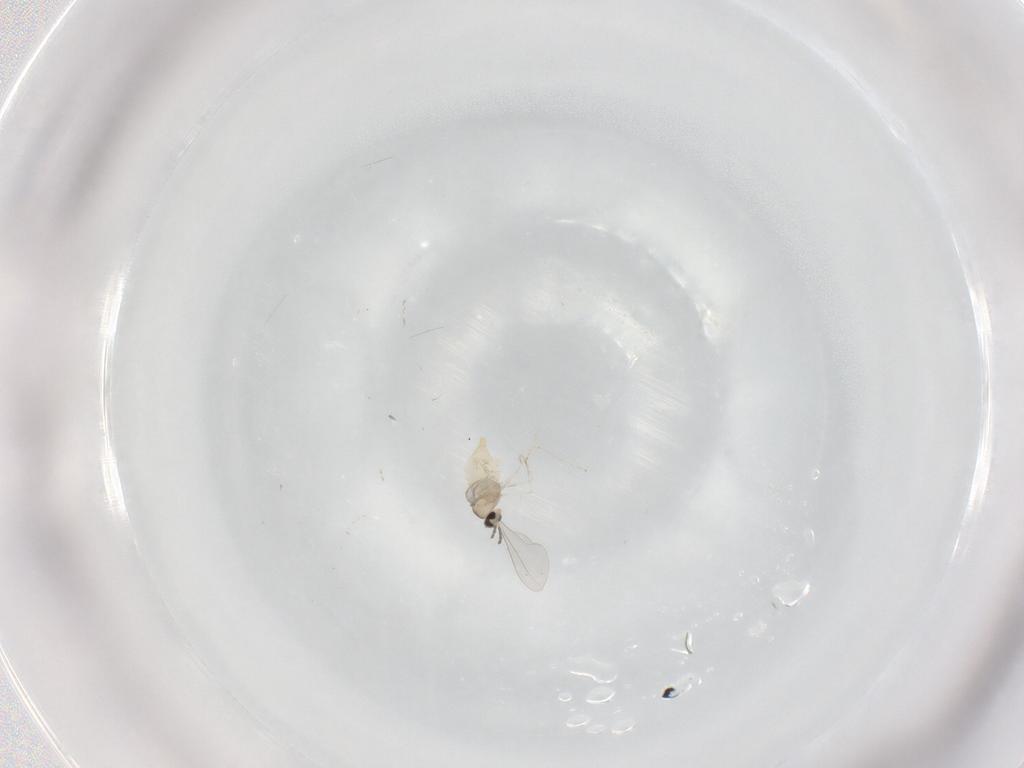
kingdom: Animalia
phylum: Arthropoda
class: Insecta
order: Diptera
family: Cecidomyiidae
